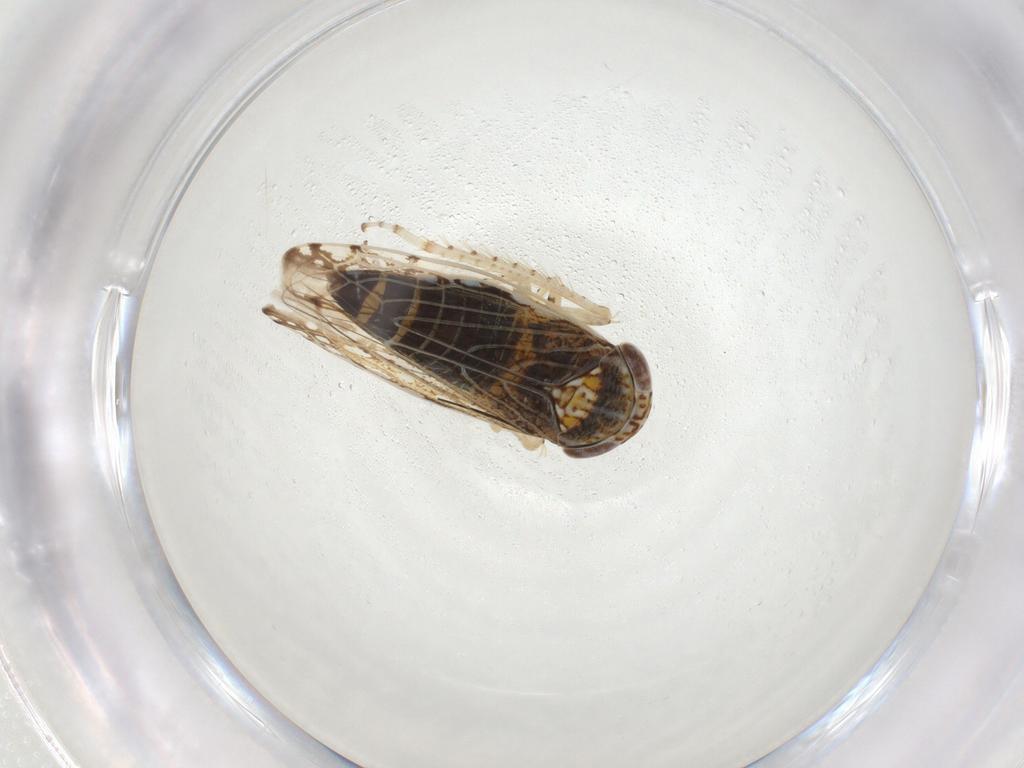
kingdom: Animalia
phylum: Arthropoda
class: Insecta
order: Hemiptera
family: Cicadellidae
